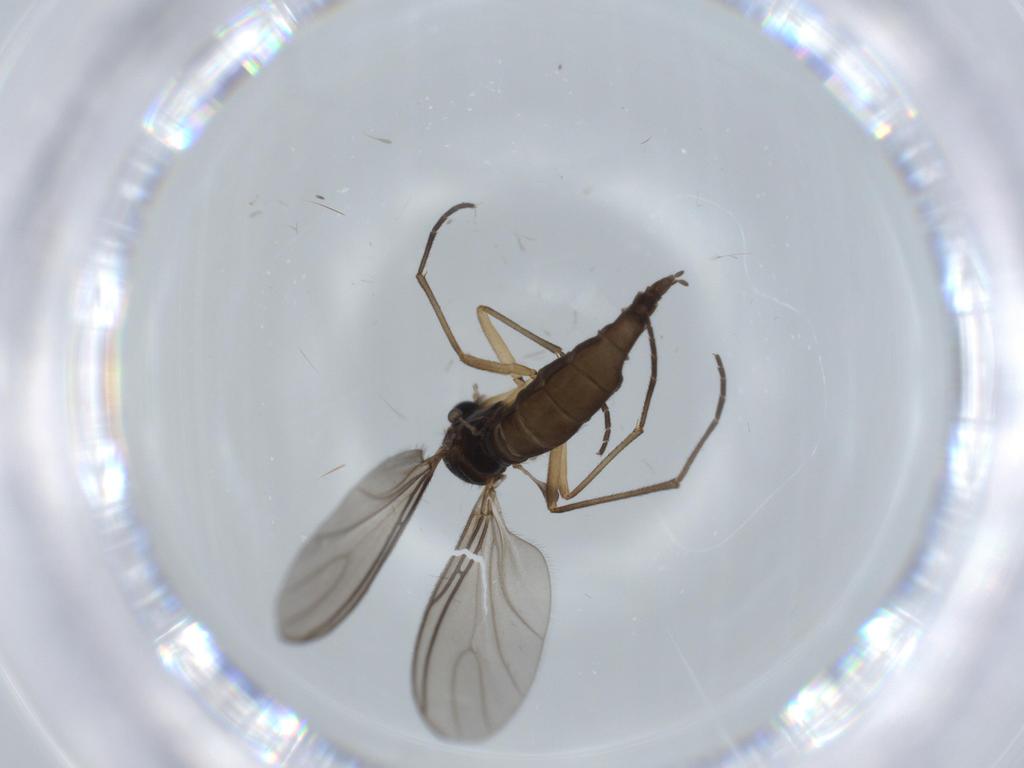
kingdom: Animalia
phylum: Arthropoda
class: Insecta
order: Diptera
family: Sciaridae
